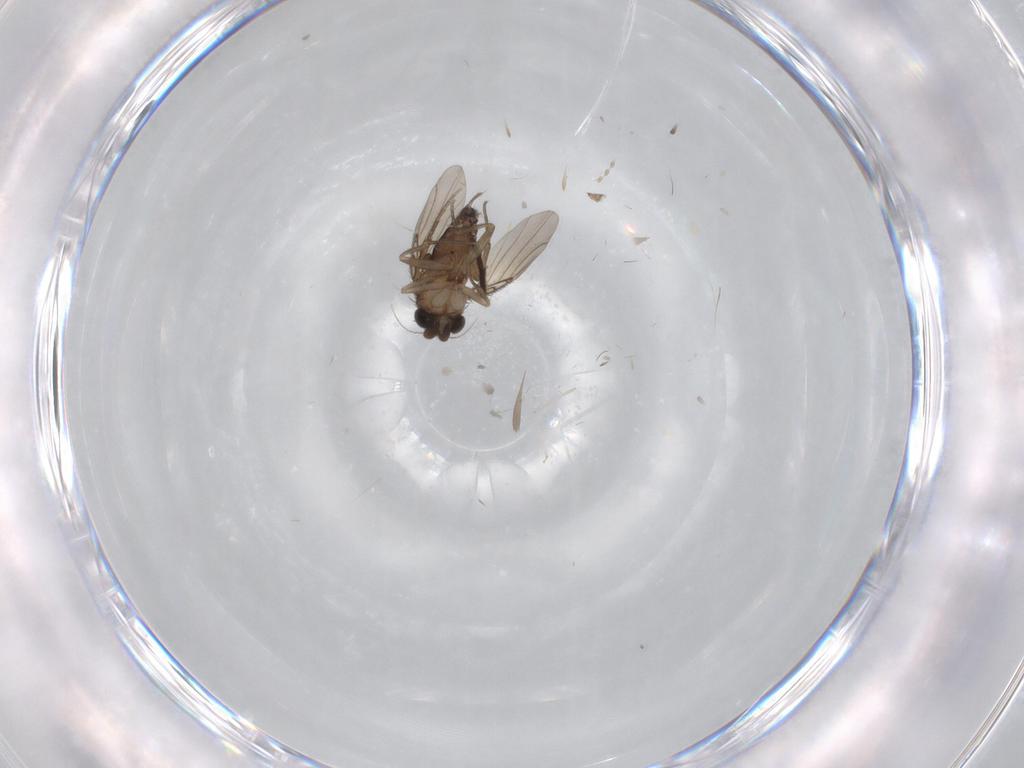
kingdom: Animalia
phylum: Arthropoda
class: Insecta
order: Diptera
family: Cecidomyiidae
